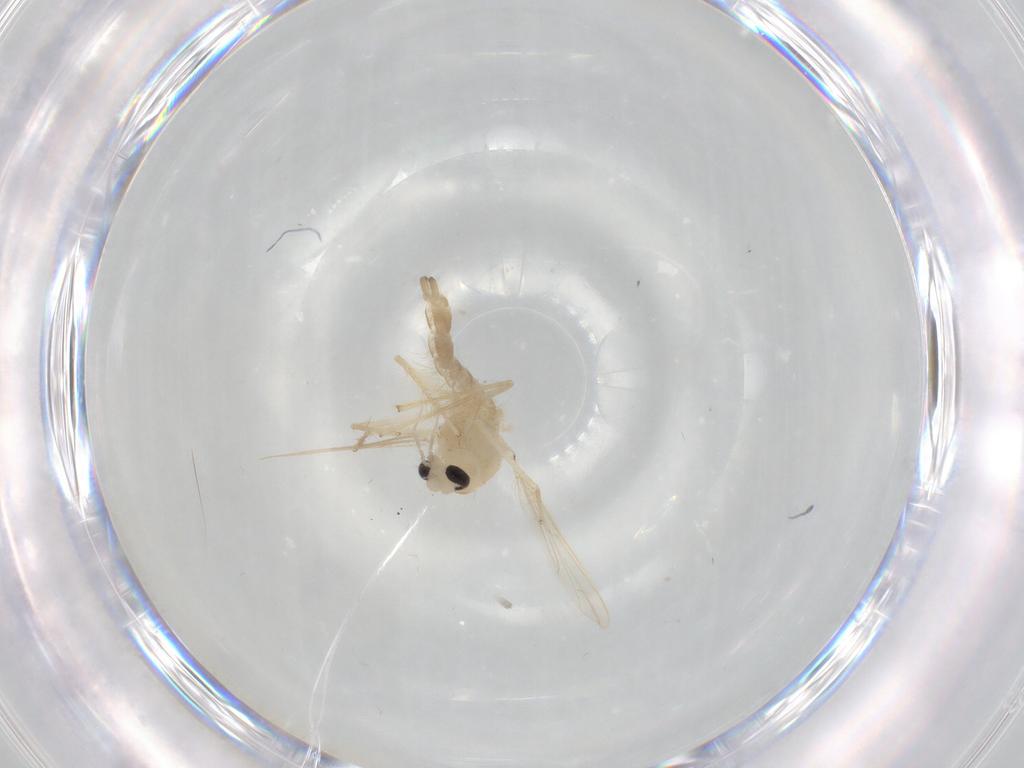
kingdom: Animalia
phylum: Arthropoda
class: Insecta
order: Diptera
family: Chironomidae
